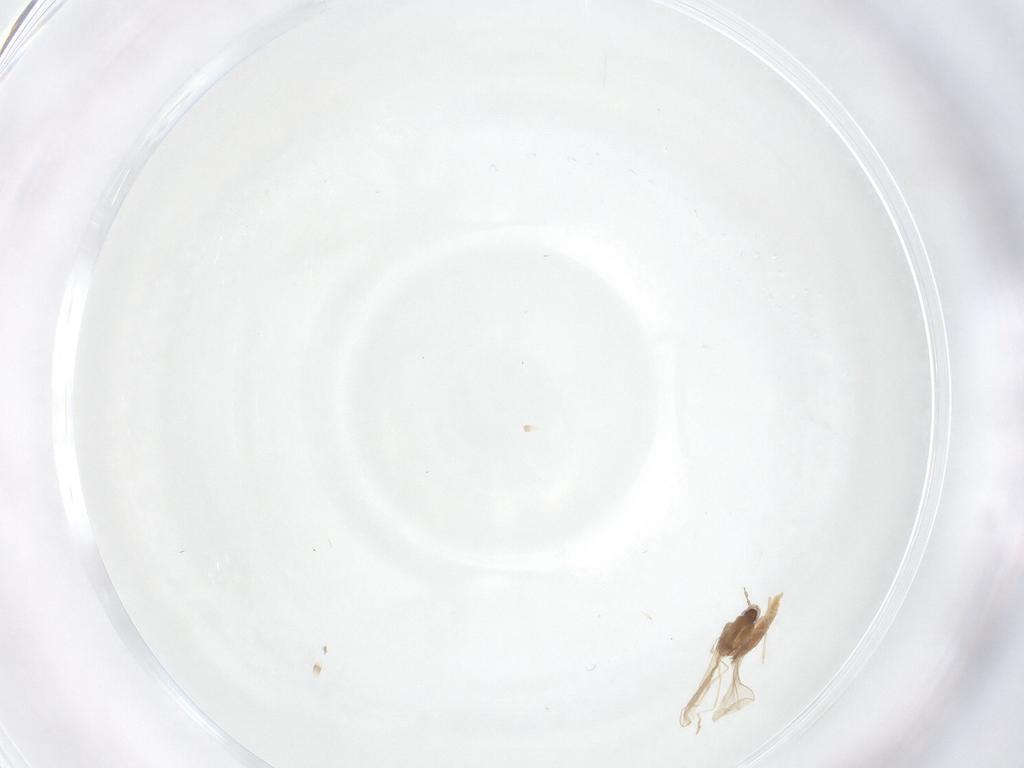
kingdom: Animalia
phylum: Arthropoda
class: Insecta
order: Diptera
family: Cecidomyiidae
